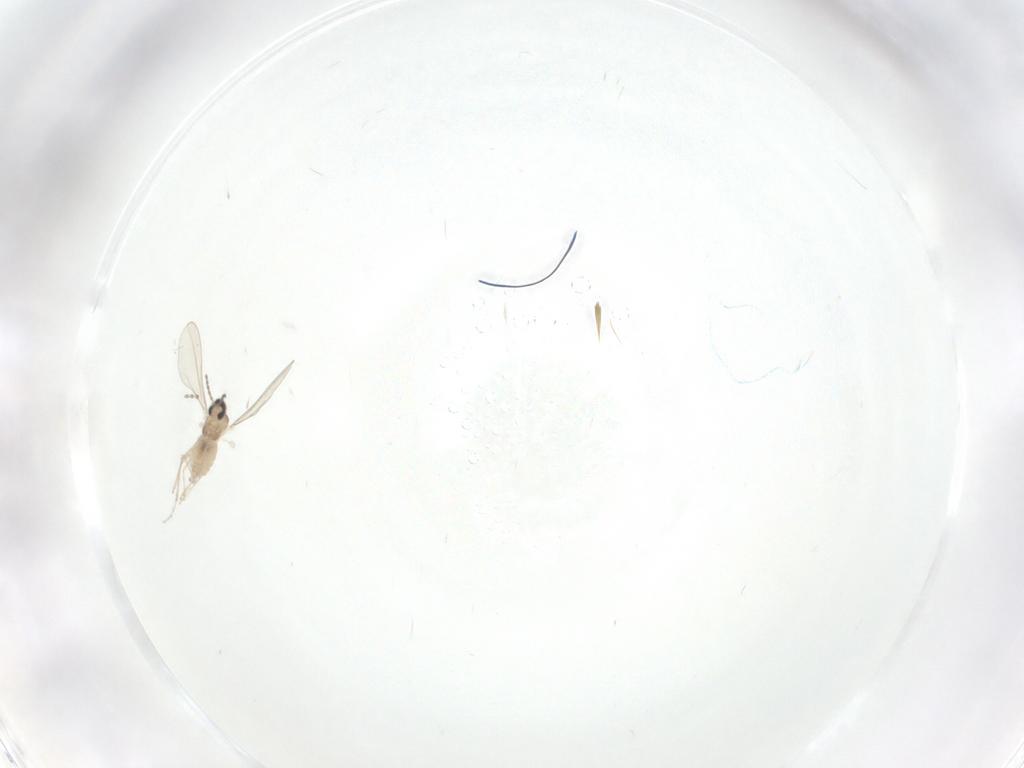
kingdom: Animalia
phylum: Arthropoda
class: Insecta
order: Diptera
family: Cecidomyiidae
